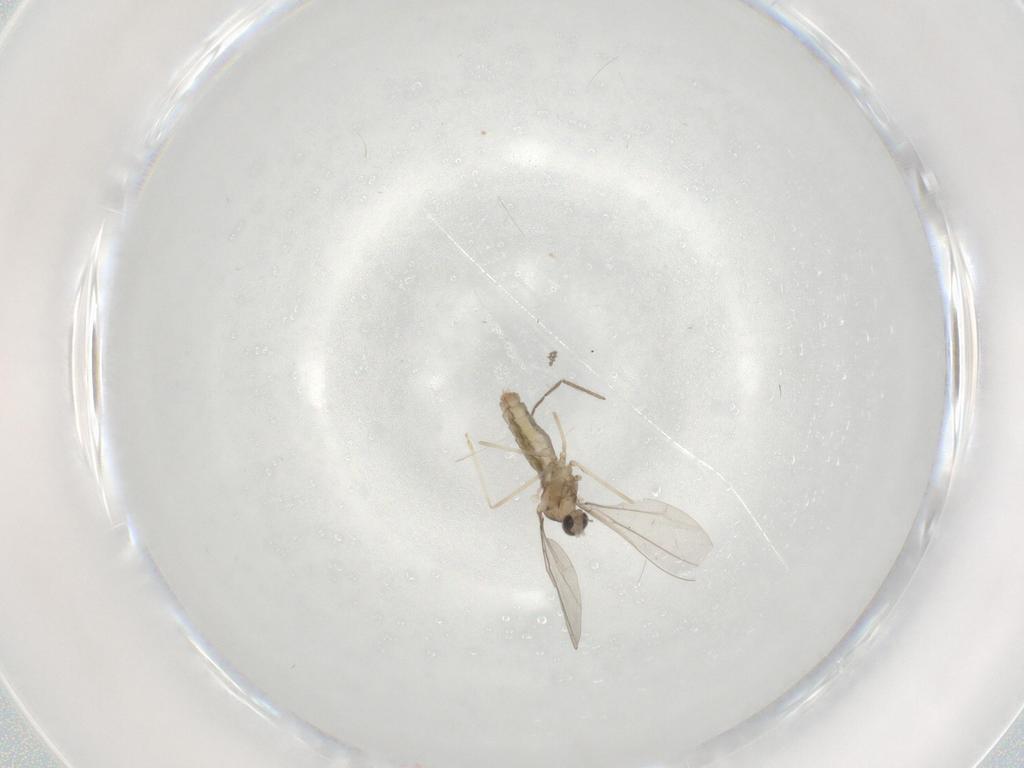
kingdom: Animalia
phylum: Arthropoda
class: Insecta
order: Diptera
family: Cecidomyiidae
